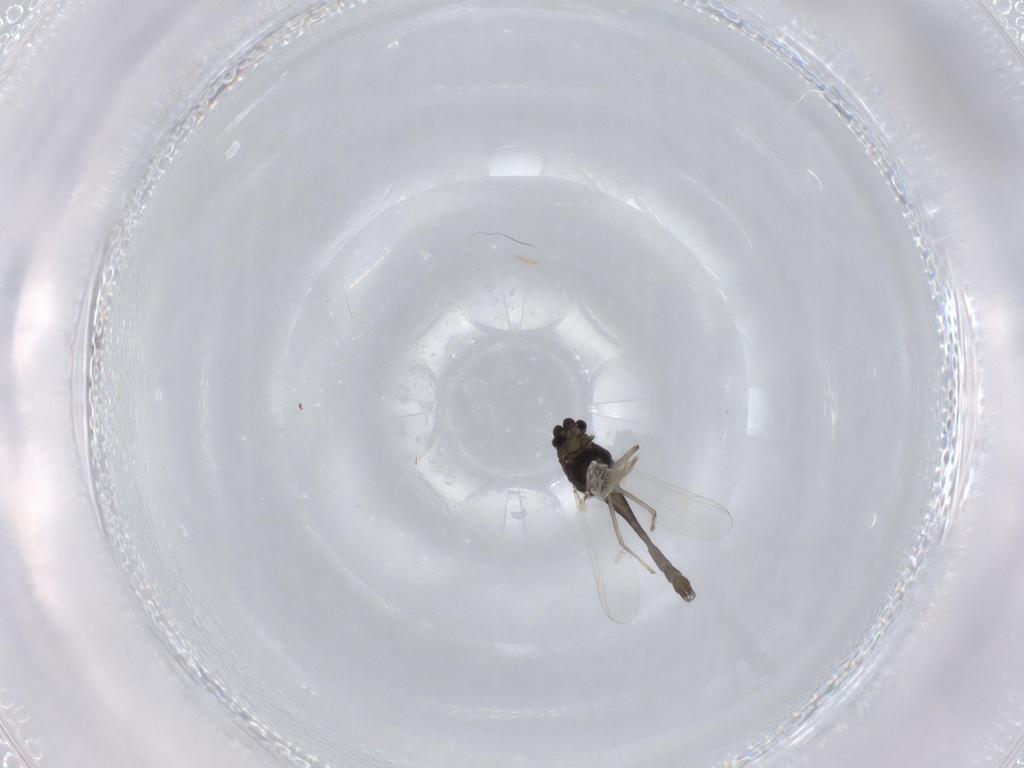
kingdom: Animalia
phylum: Arthropoda
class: Insecta
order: Diptera
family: Chironomidae
